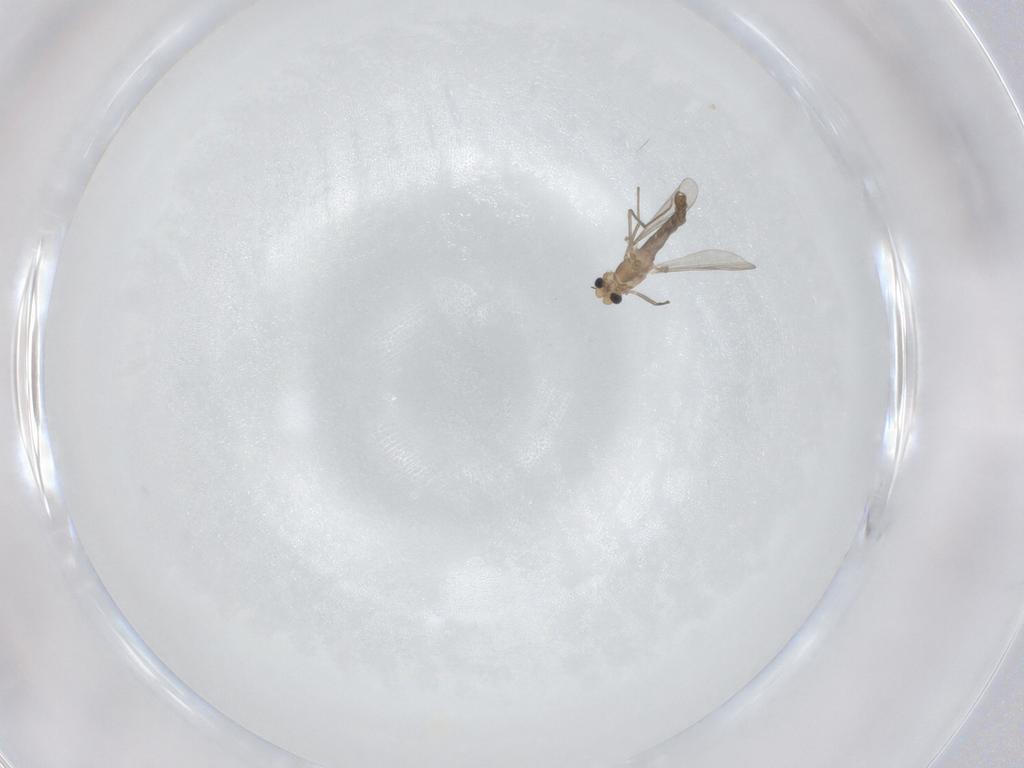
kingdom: Animalia
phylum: Arthropoda
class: Insecta
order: Diptera
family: Chironomidae
